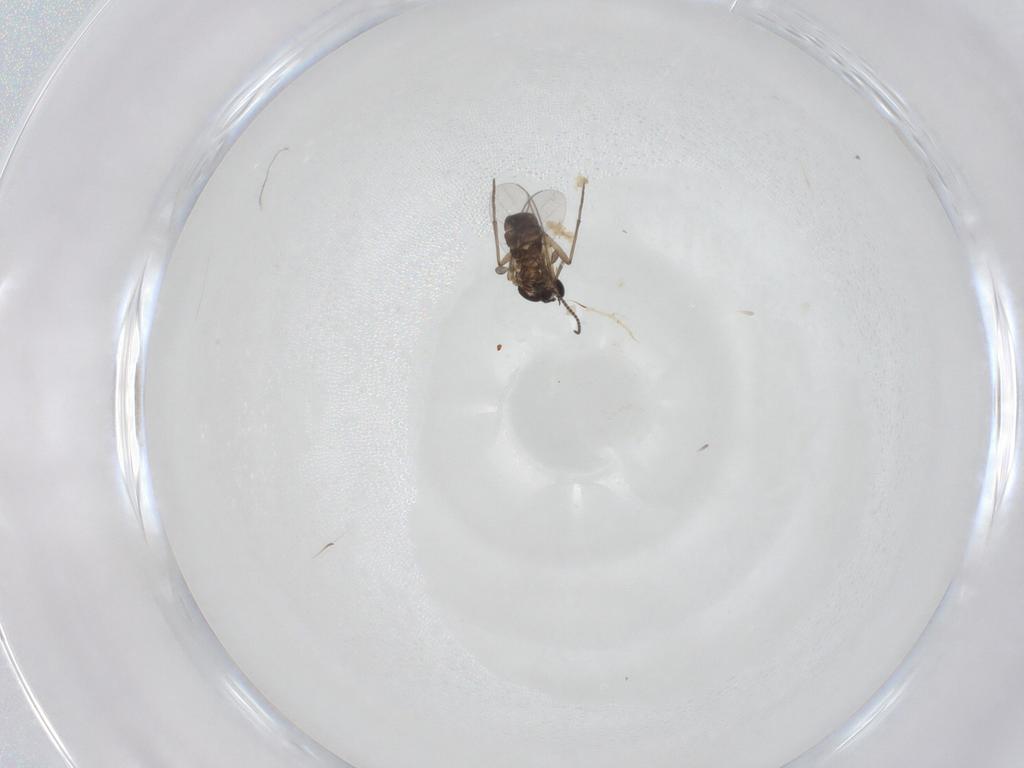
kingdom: Animalia
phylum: Arthropoda
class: Insecta
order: Diptera
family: Sciaridae
